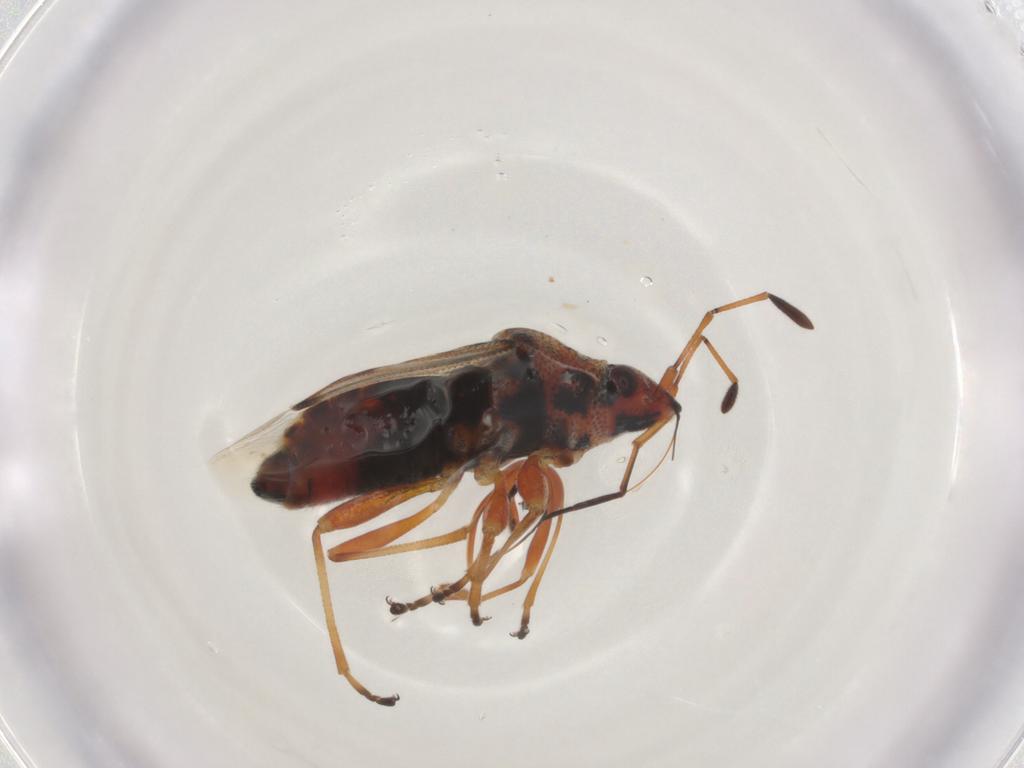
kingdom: Animalia
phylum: Arthropoda
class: Insecta
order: Hemiptera
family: Lygaeidae
